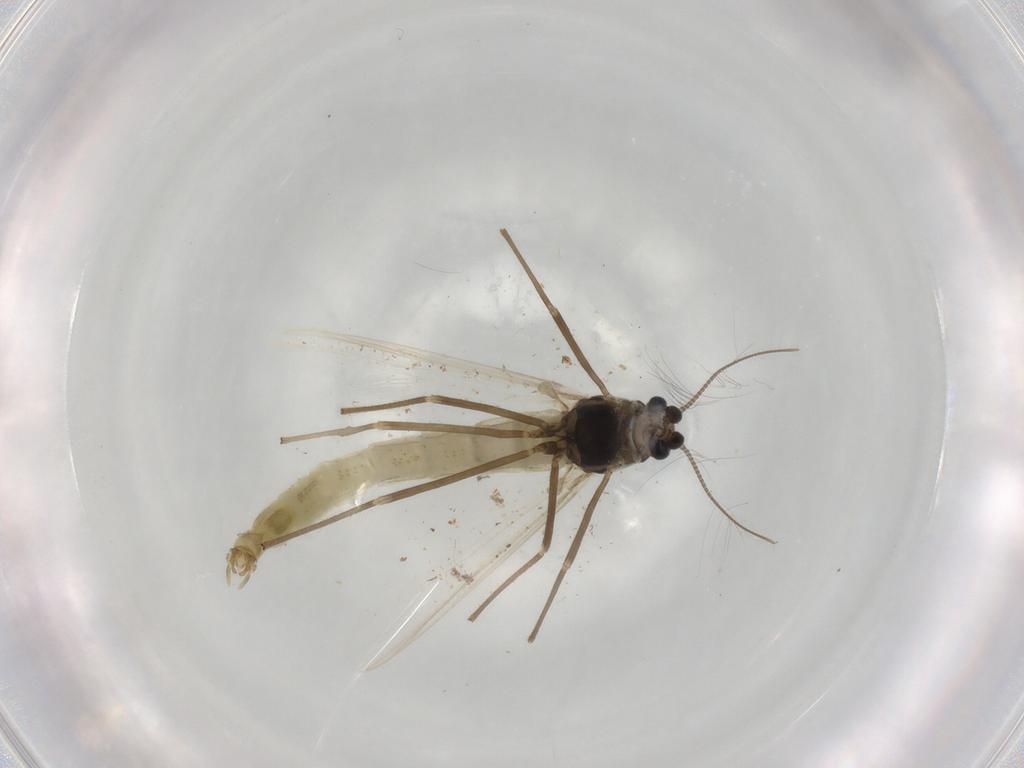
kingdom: Animalia
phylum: Arthropoda
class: Insecta
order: Diptera
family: Chironomidae
